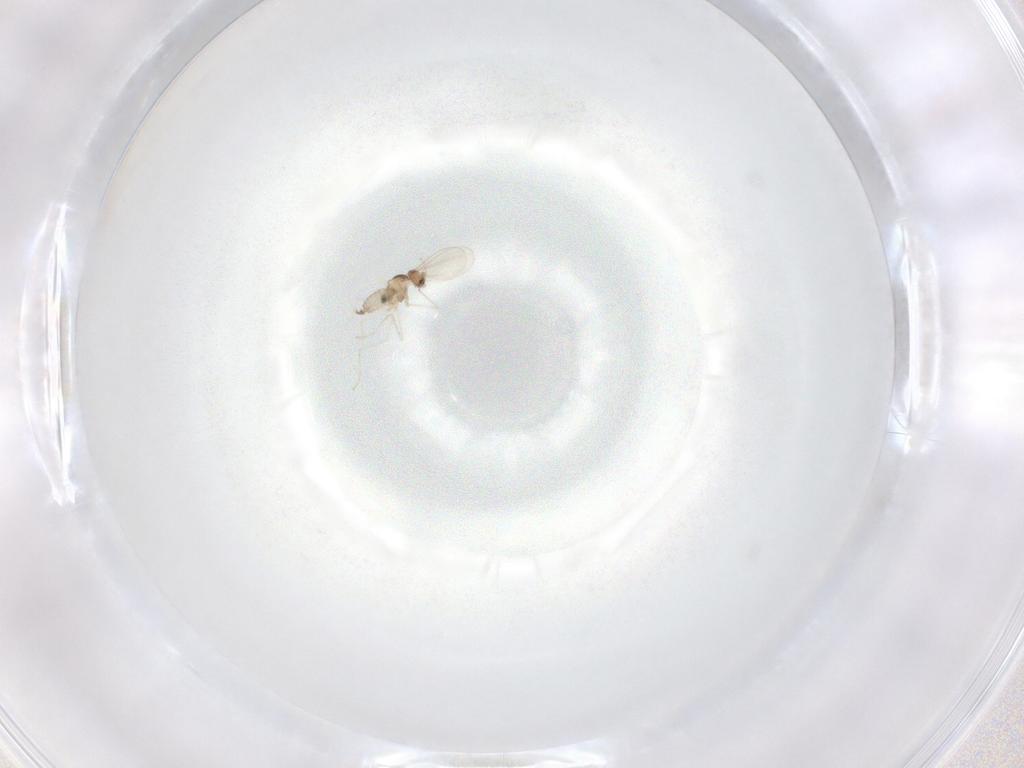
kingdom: Animalia
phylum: Arthropoda
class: Insecta
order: Diptera
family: Cecidomyiidae
